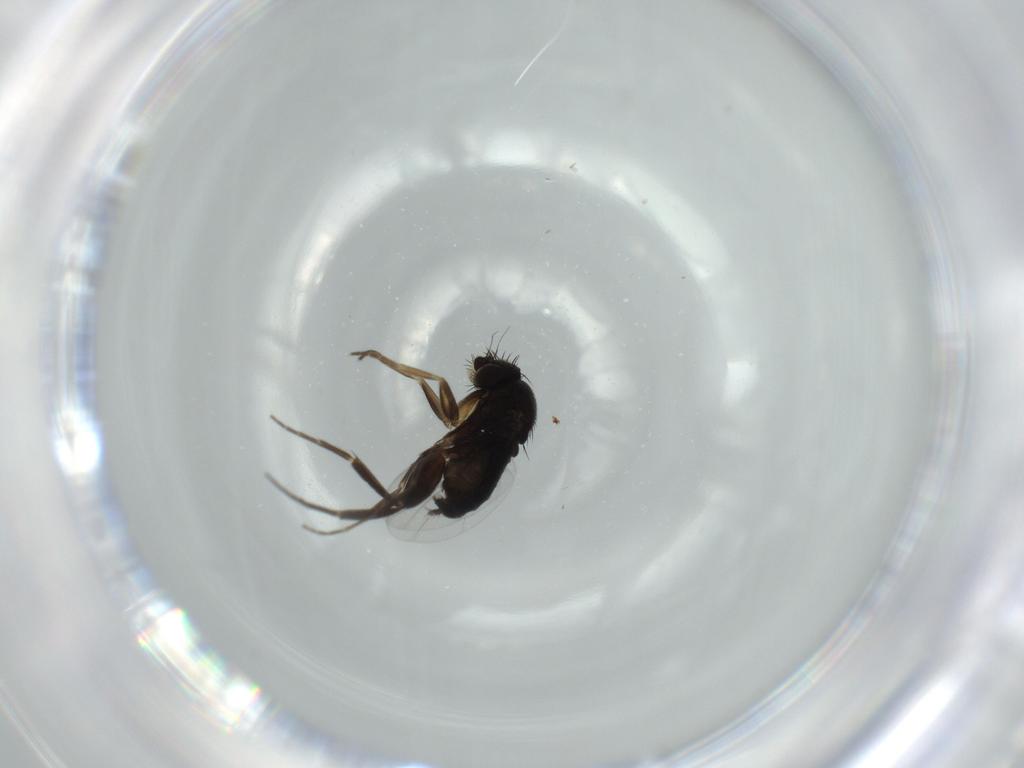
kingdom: Animalia
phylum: Arthropoda
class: Insecta
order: Diptera
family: Phoridae
